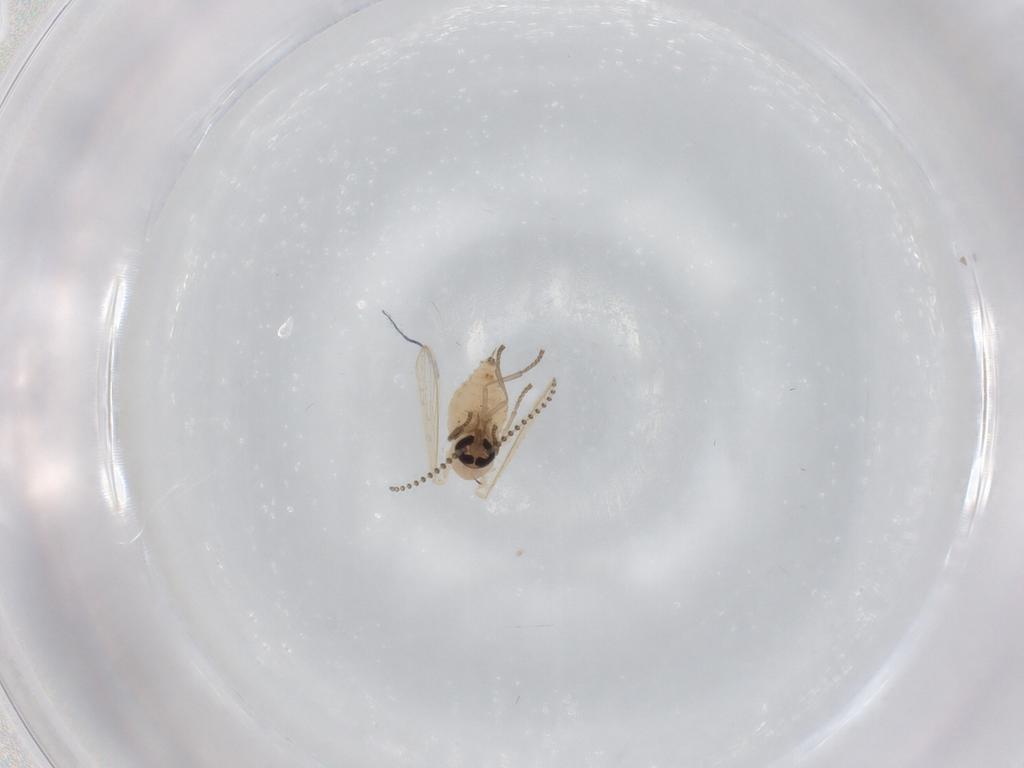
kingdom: Animalia
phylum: Arthropoda
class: Insecta
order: Diptera
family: Psychodidae
